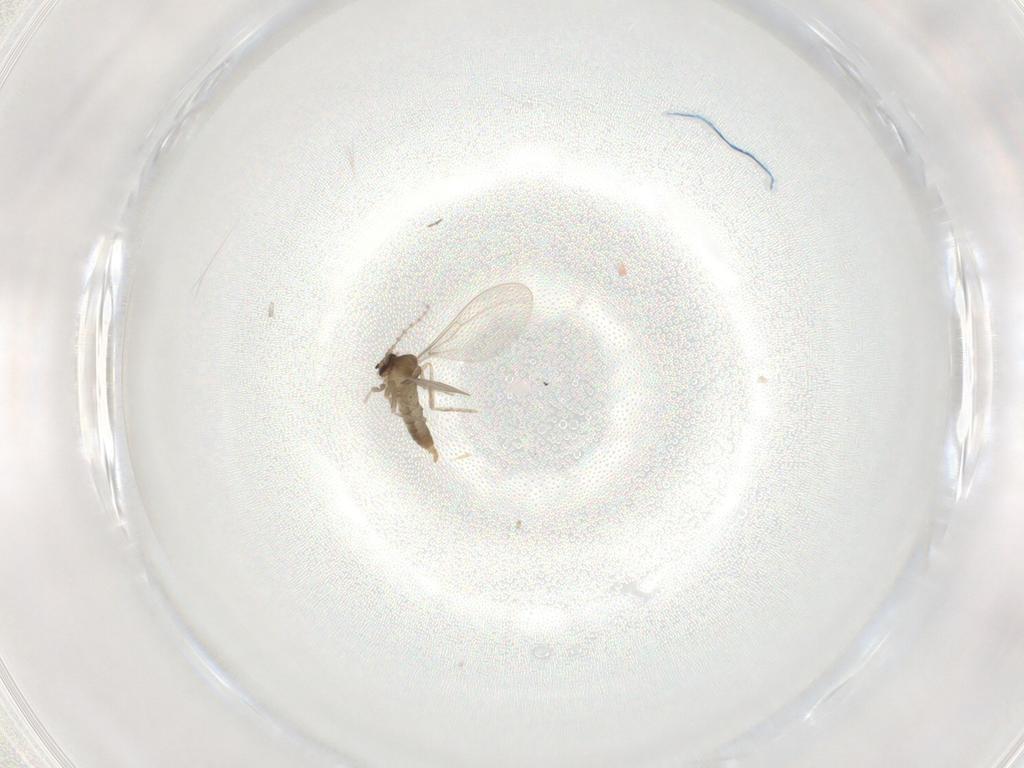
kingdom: Animalia
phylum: Arthropoda
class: Insecta
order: Diptera
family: Cecidomyiidae
